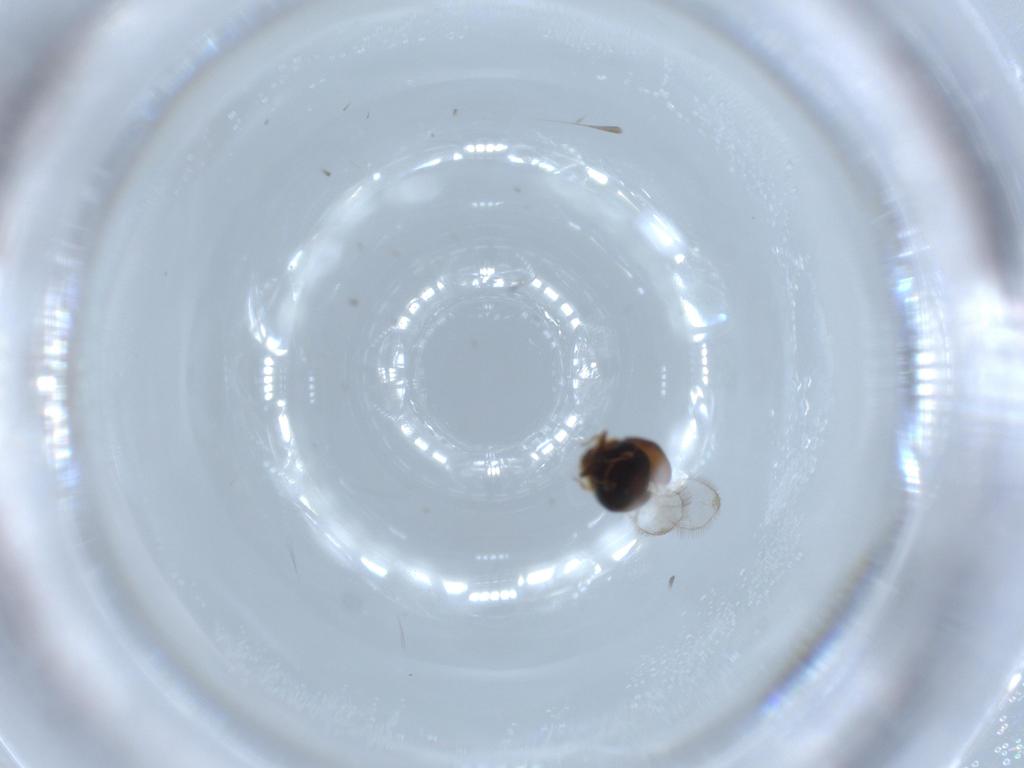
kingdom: Animalia
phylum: Arthropoda
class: Insecta
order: Coleoptera
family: Corylophidae
